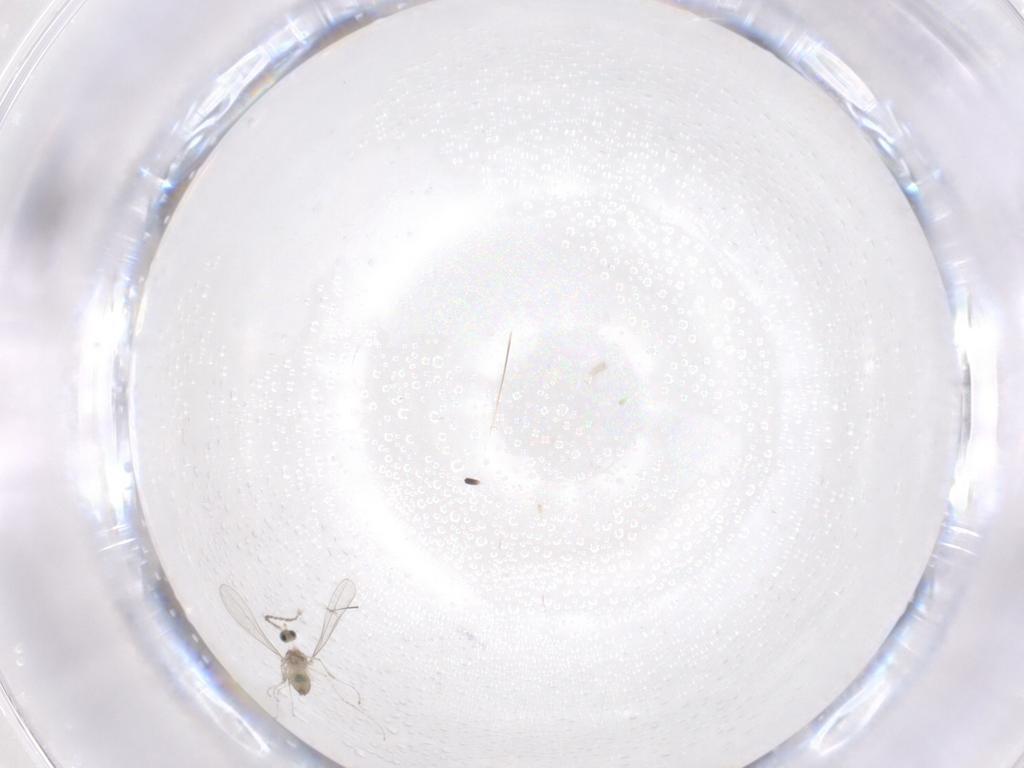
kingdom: Animalia
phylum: Arthropoda
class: Insecta
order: Diptera
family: Cecidomyiidae
